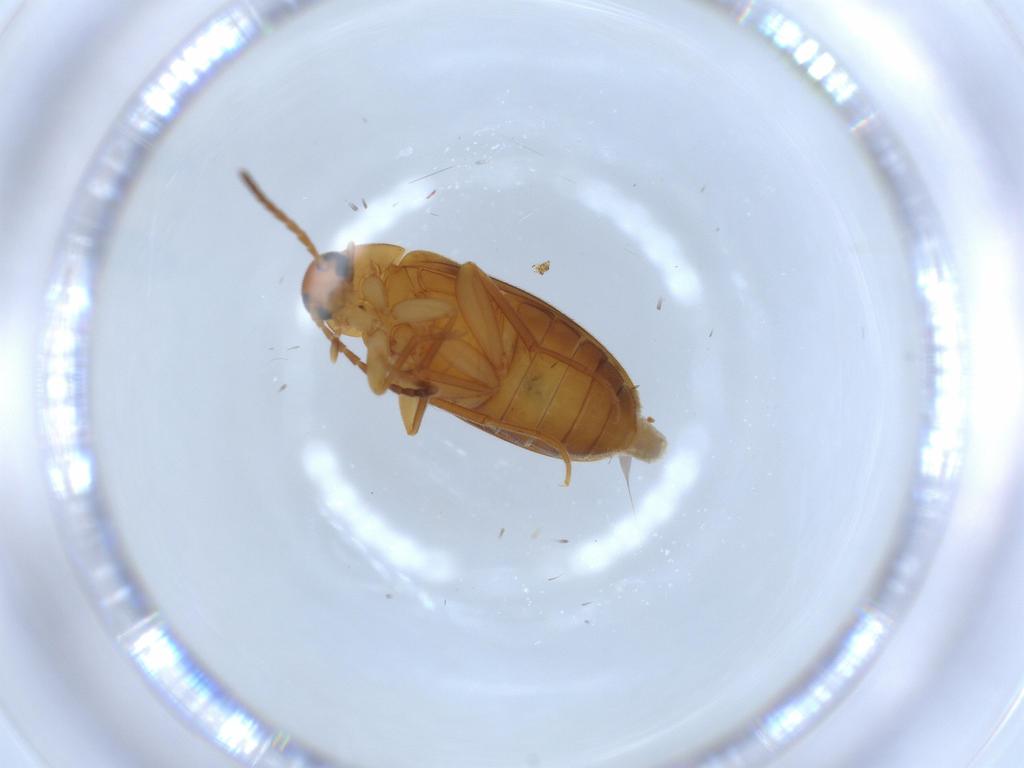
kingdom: Animalia
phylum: Arthropoda
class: Insecta
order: Coleoptera
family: Scraptiidae
